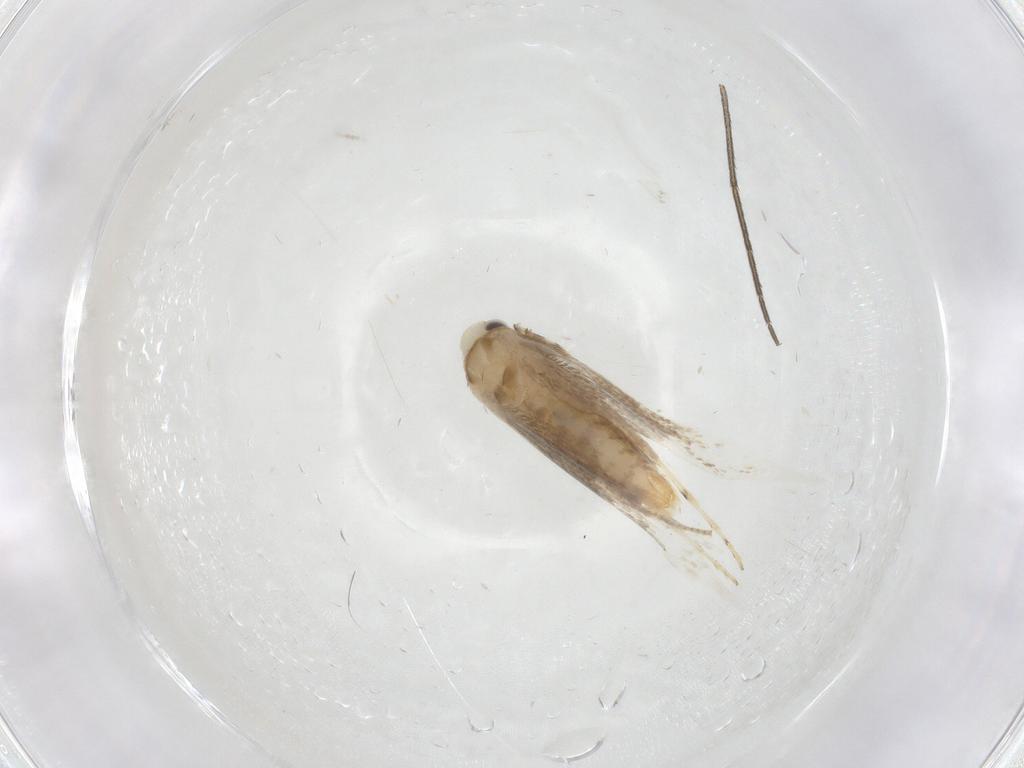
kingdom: Animalia
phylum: Arthropoda
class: Insecta
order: Lepidoptera
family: Gracillariidae
